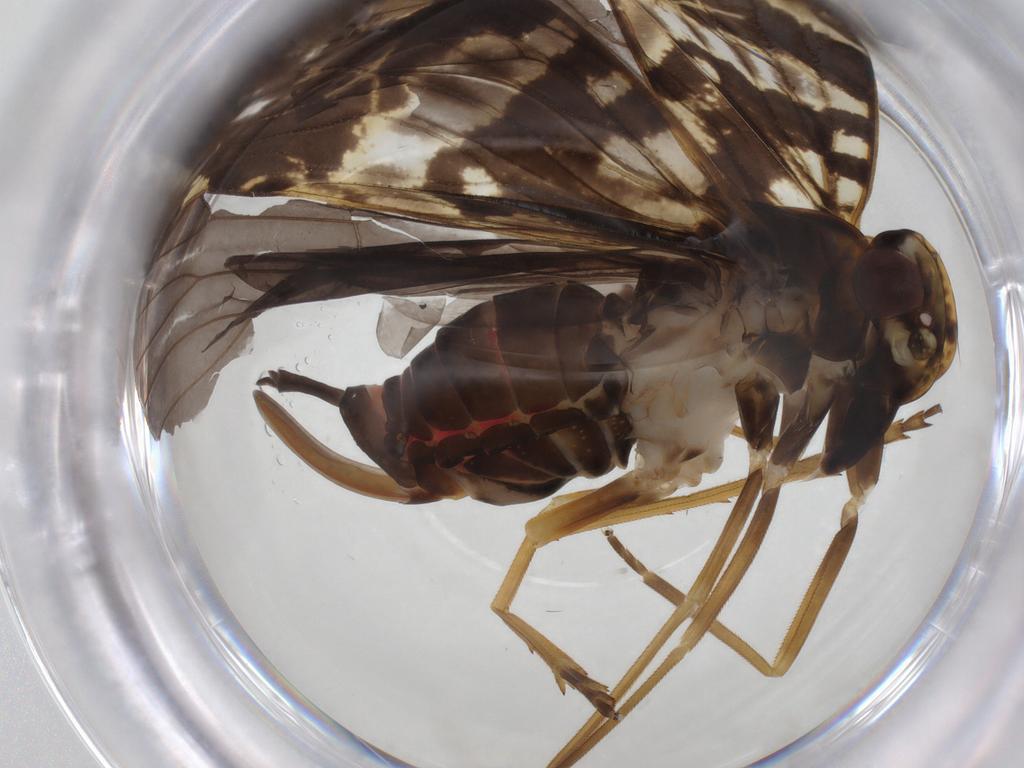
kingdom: Animalia
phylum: Arthropoda
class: Insecta
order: Hemiptera
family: Cixiidae
